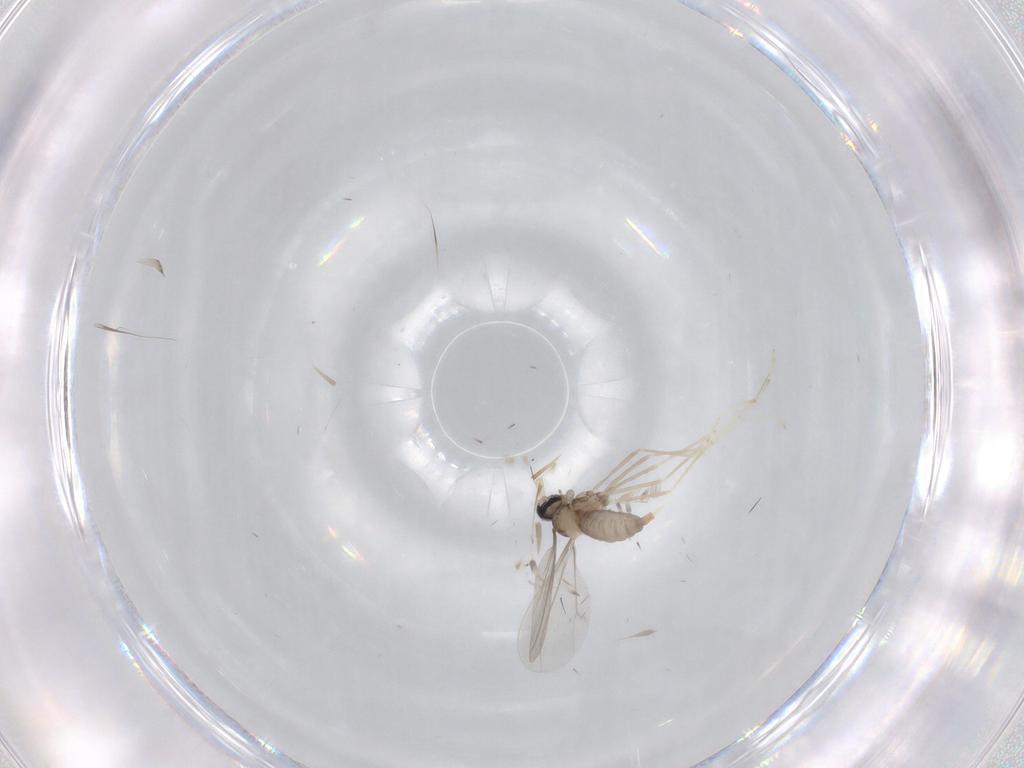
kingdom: Animalia
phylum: Arthropoda
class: Insecta
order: Diptera
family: Cecidomyiidae
